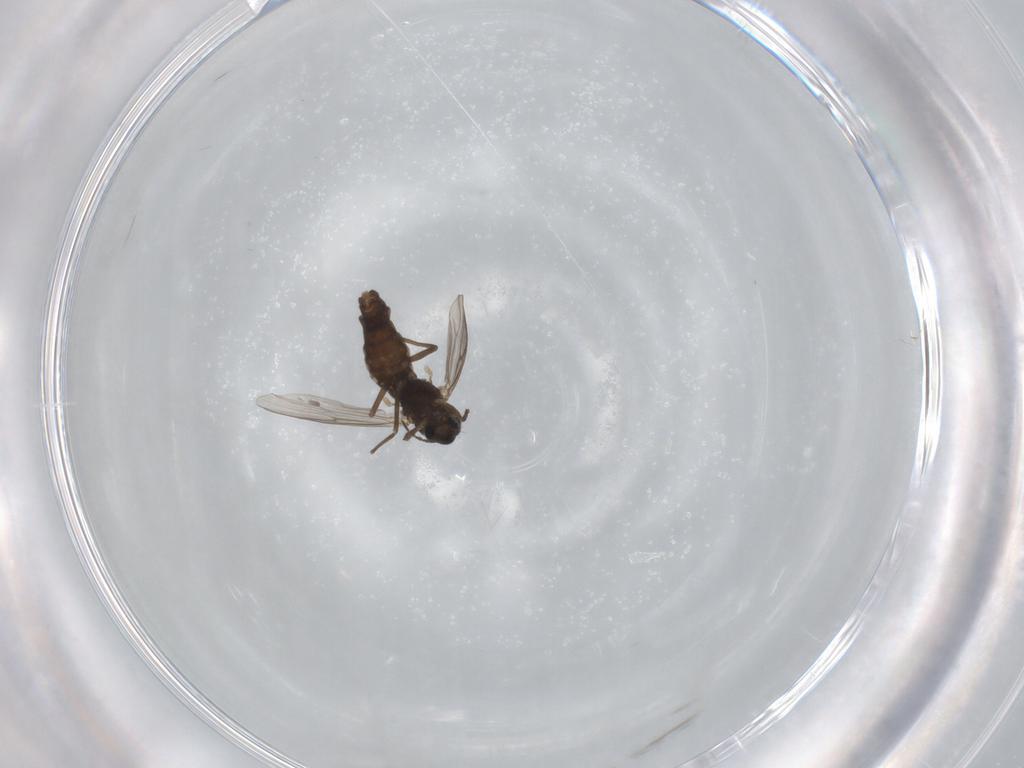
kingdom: Animalia
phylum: Arthropoda
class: Insecta
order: Diptera
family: Chironomidae
